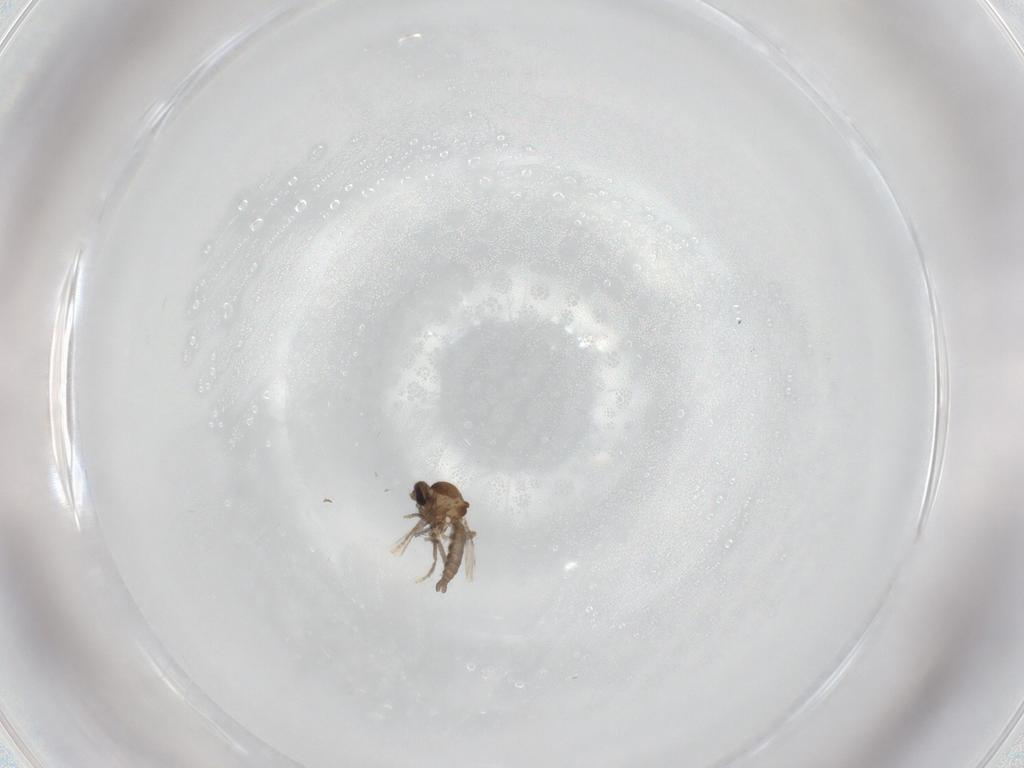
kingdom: Animalia
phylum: Arthropoda
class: Insecta
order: Diptera
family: Ceratopogonidae
